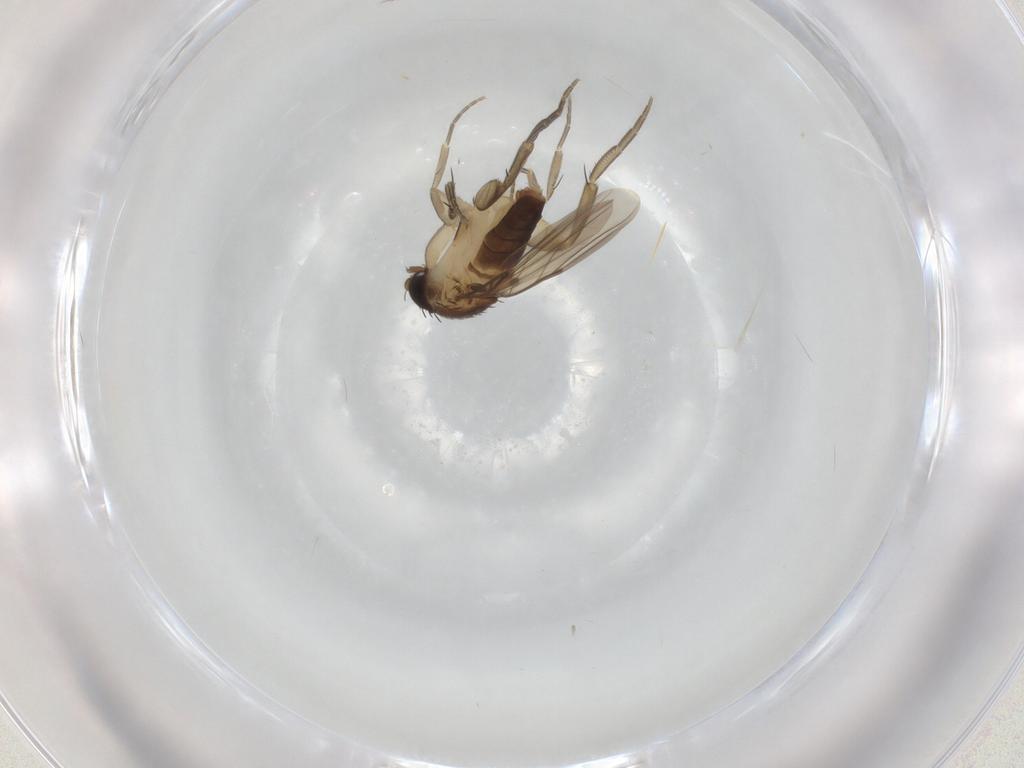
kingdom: Animalia
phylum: Arthropoda
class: Insecta
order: Diptera
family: Phoridae
